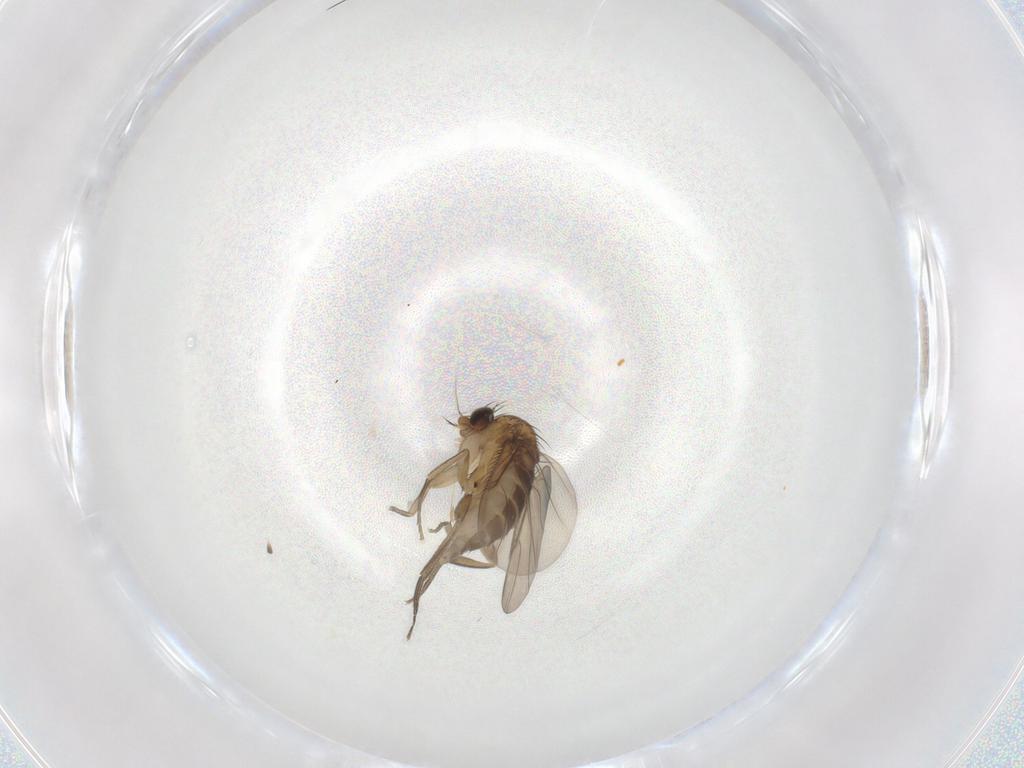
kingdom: Animalia
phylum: Arthropoda
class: Insecta
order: Diptera
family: Phoridae
